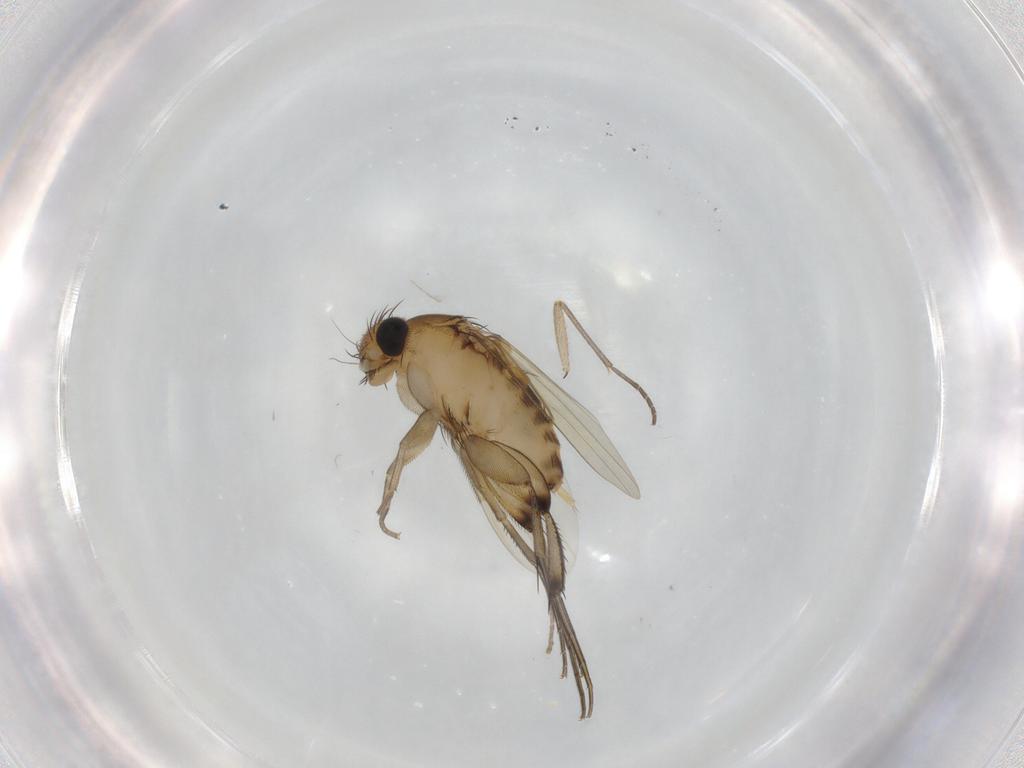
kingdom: Animalia
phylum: Arthropoda
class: Insecta
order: Diptera
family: Phoridae
